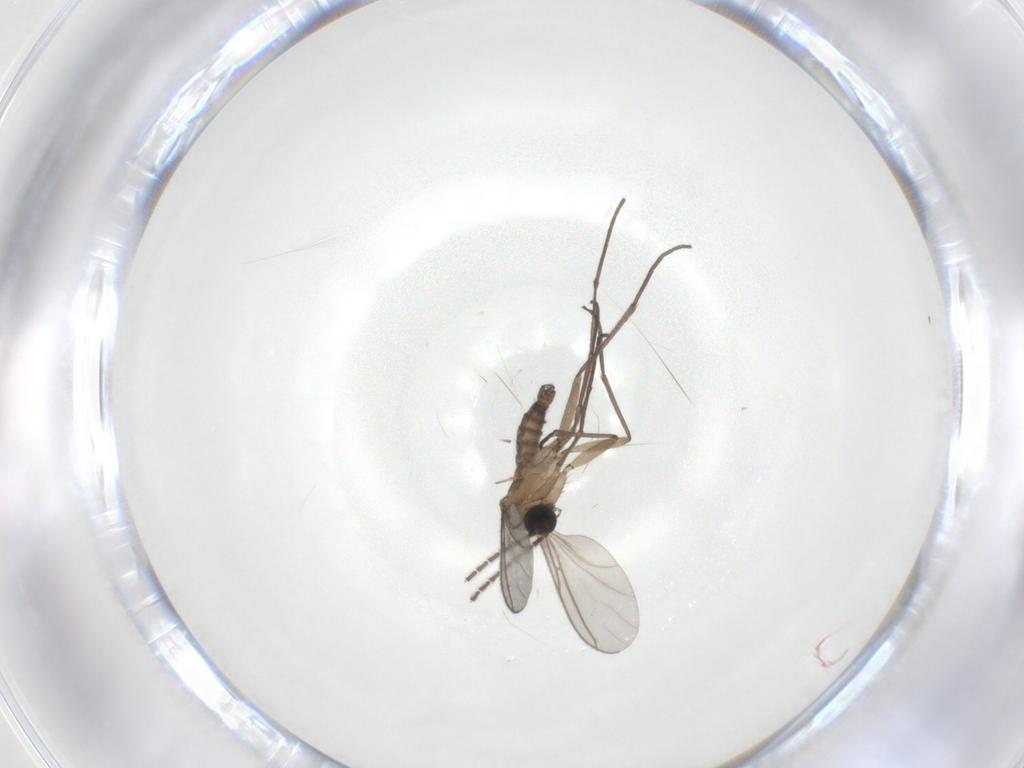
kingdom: Animalia
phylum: Arthropoda
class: Insecta
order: Diptera
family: Sciaridae
